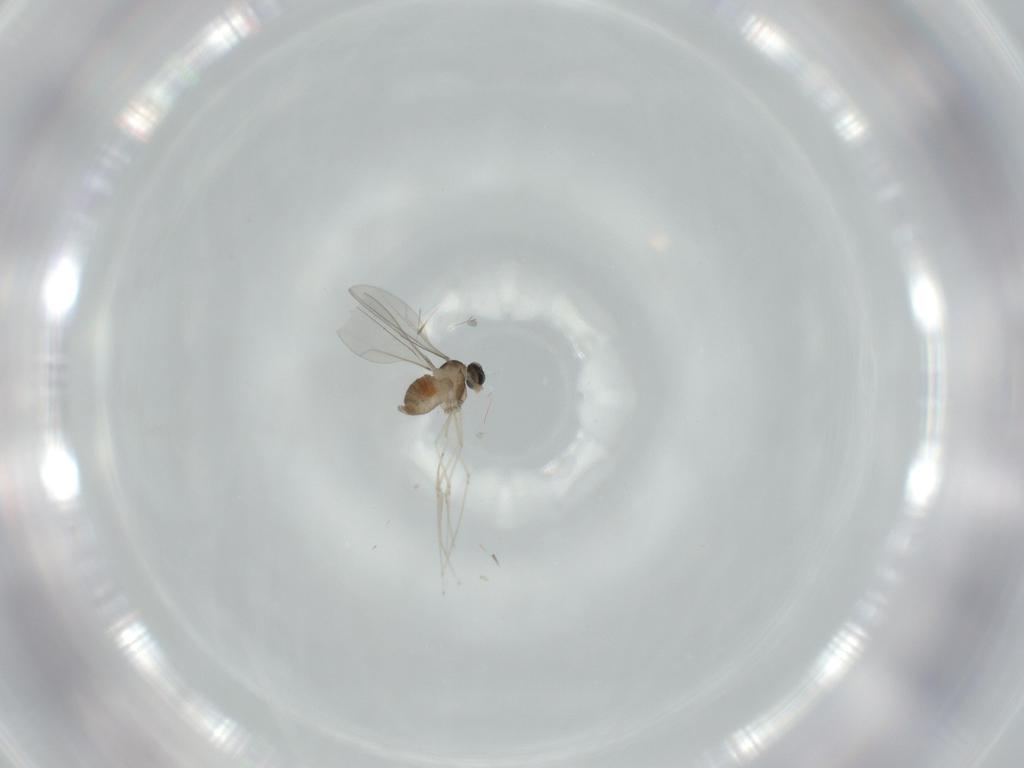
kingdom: Animalia
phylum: Arthropoda
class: Insecta
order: Diptera
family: Cecidomyiidae
